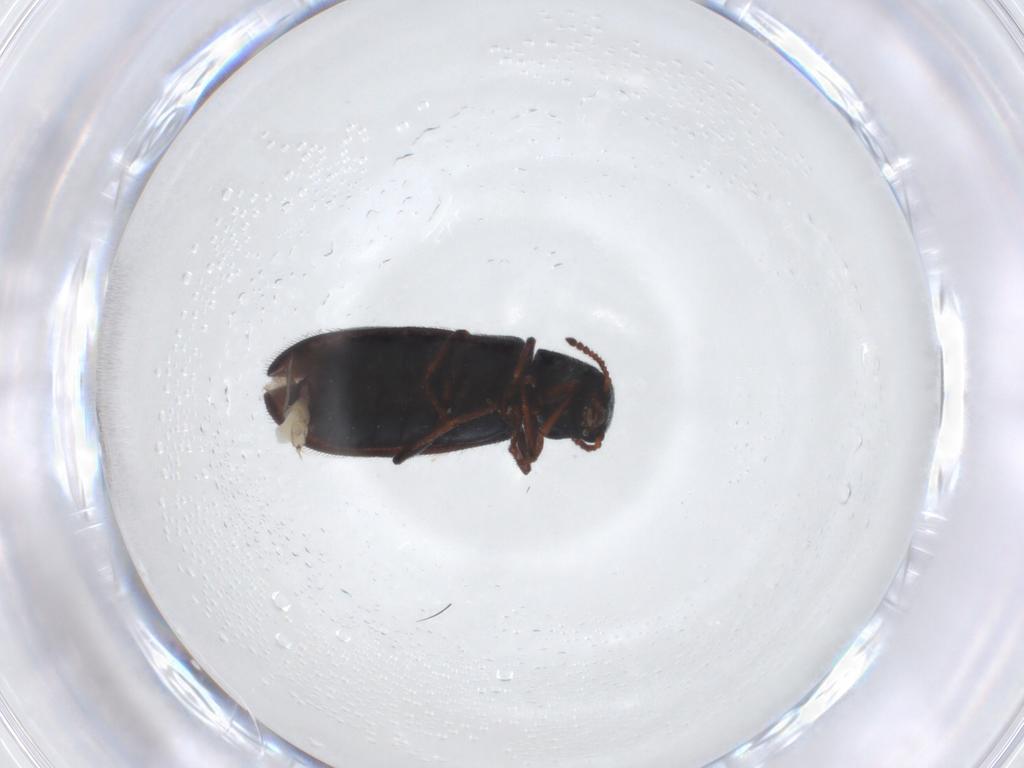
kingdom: Animalia
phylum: Arthropoda
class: Insecta
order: Coleoptera
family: Melyridae
